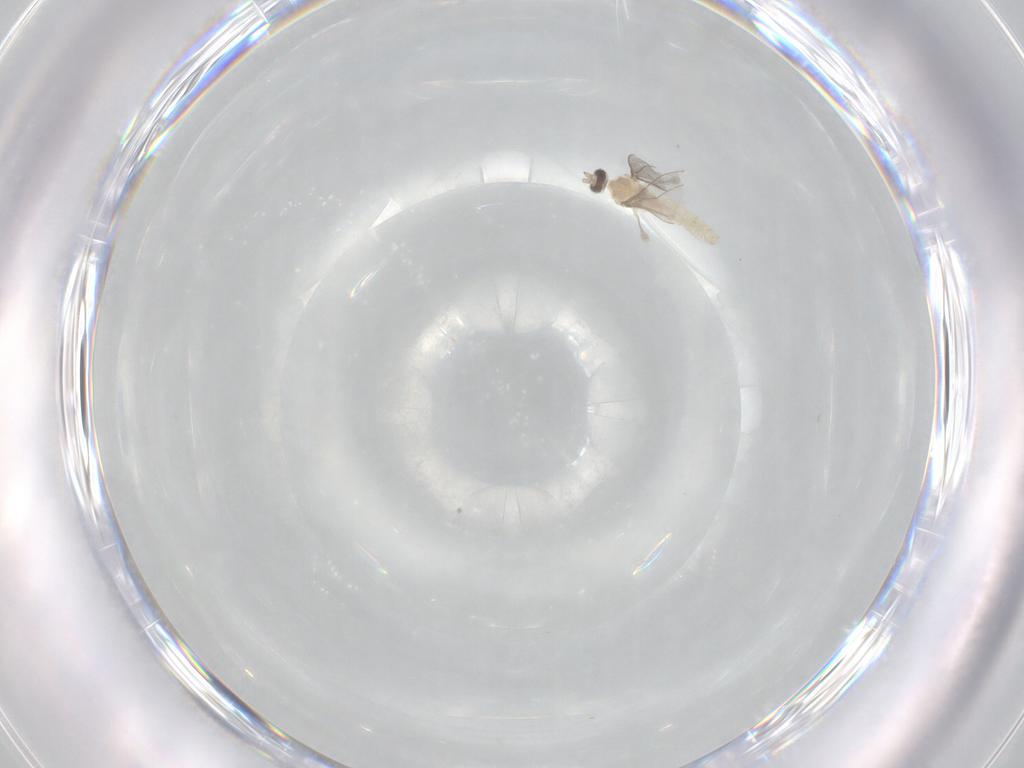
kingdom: Animalia
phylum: Arthropoda
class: Insecta
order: Diptera
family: Cecidomyiidae
